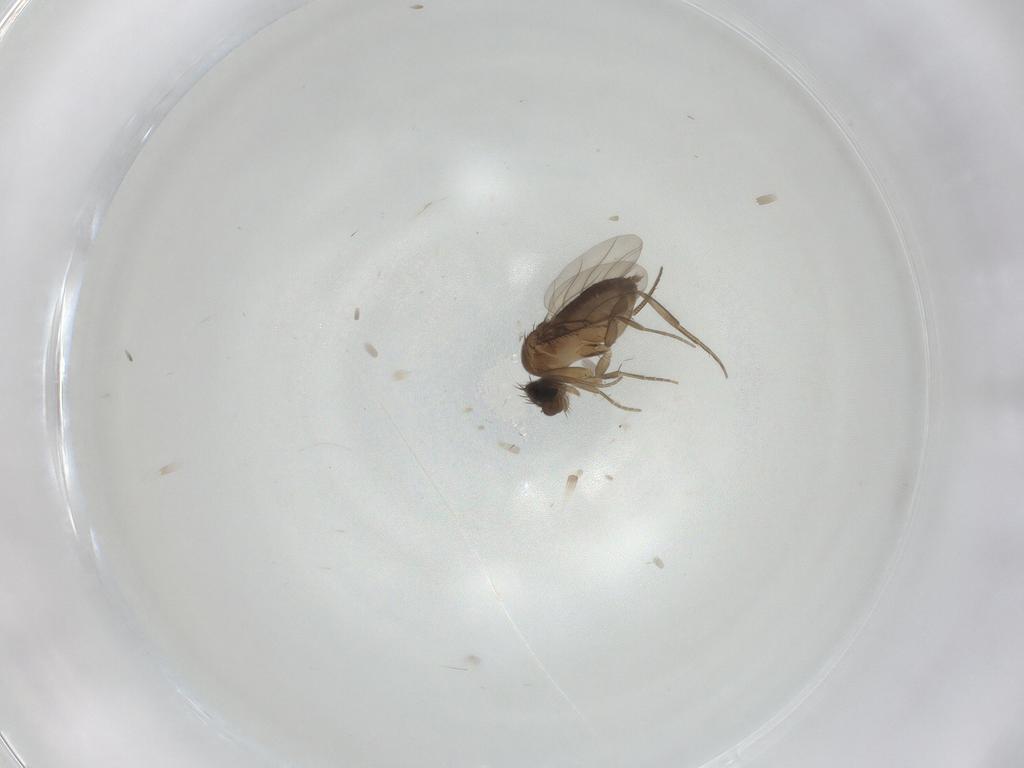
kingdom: Animalia
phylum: Arthropoda
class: Insecta
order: Diptera
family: Phoridae
